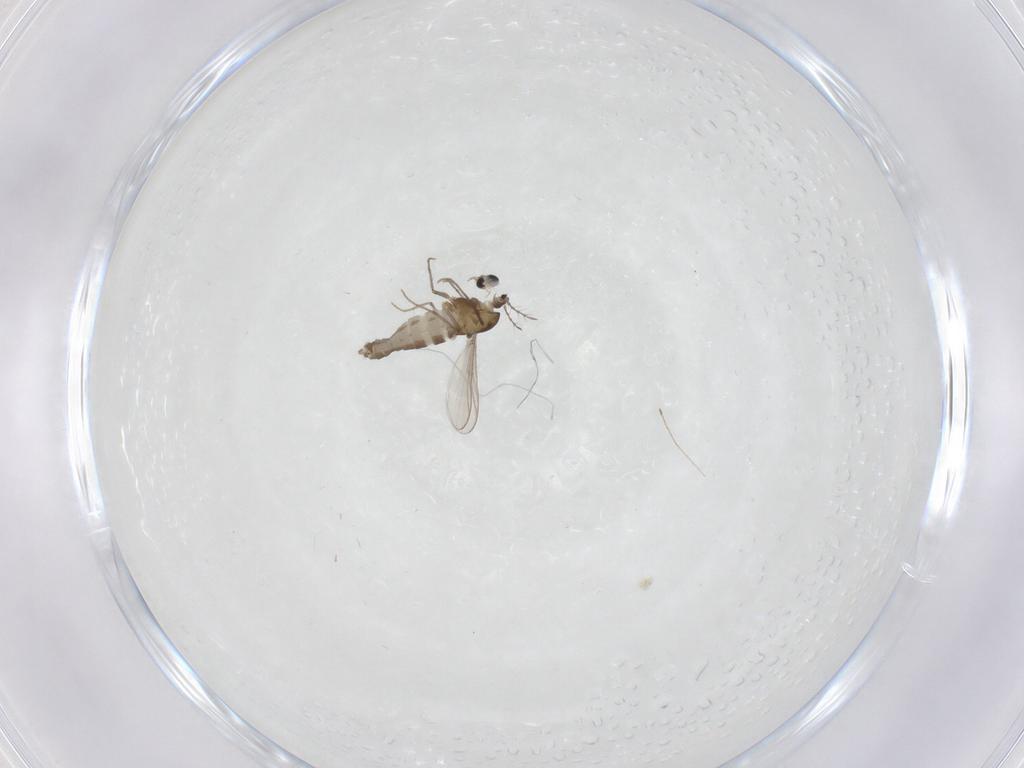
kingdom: Animalia
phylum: Arthropoda
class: Insecta
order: Diptera
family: Chironomidae
